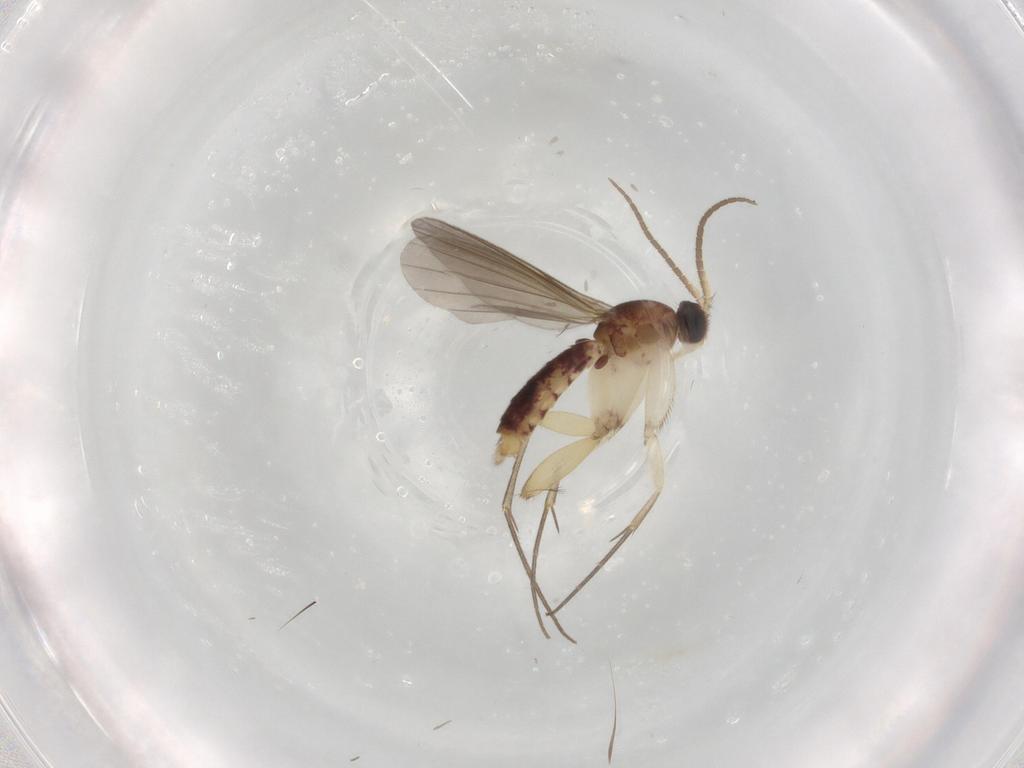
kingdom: Animalia
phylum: Arthropoda
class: Insecta
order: Diptera
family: Mycetophilidae
